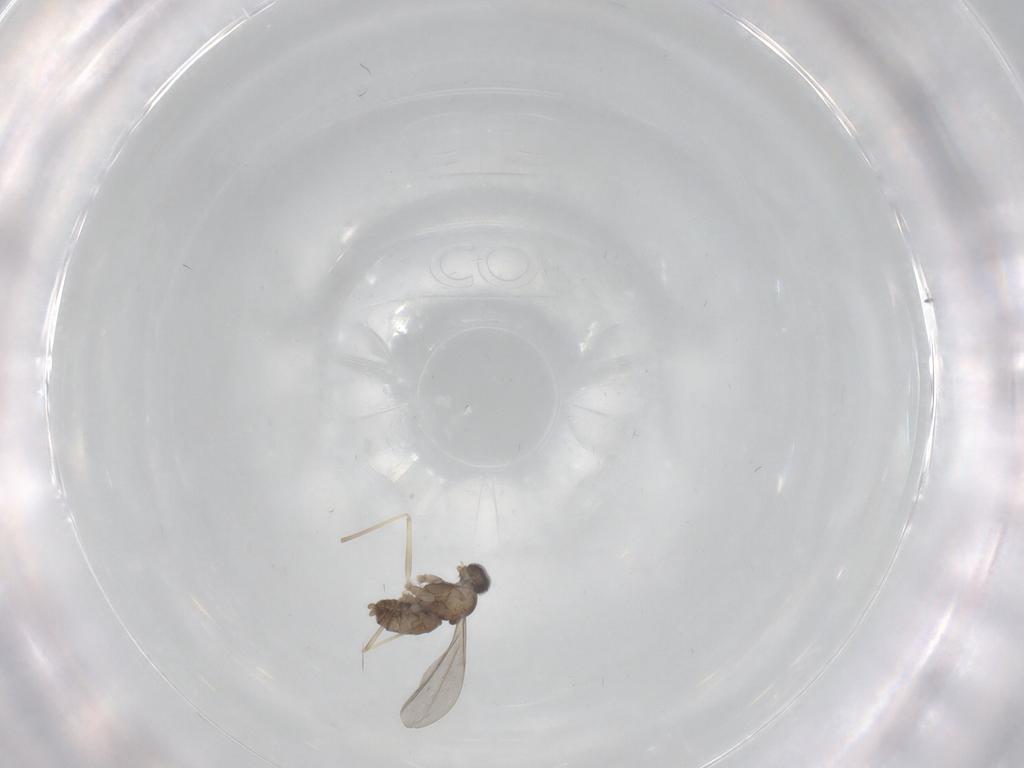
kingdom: Animalia
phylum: Arthropoda
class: Insecta
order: Diptera
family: Cecidomyiidae
